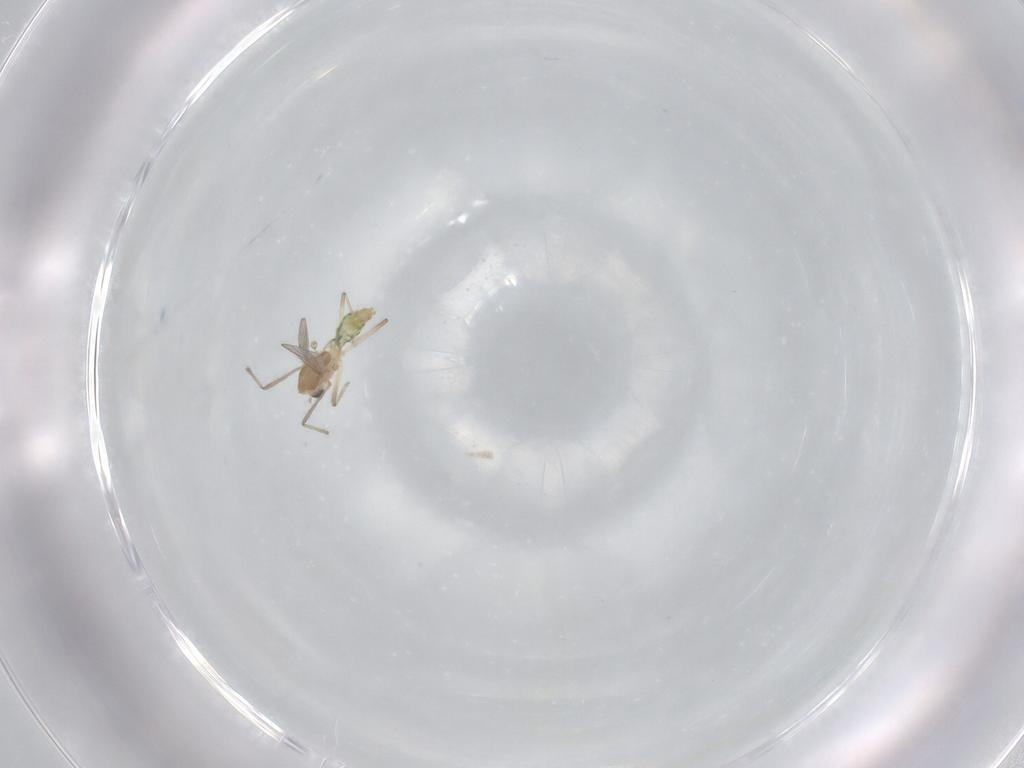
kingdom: Animalia
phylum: Arthropoda
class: Insecta
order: Diptera
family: Chironomidae
